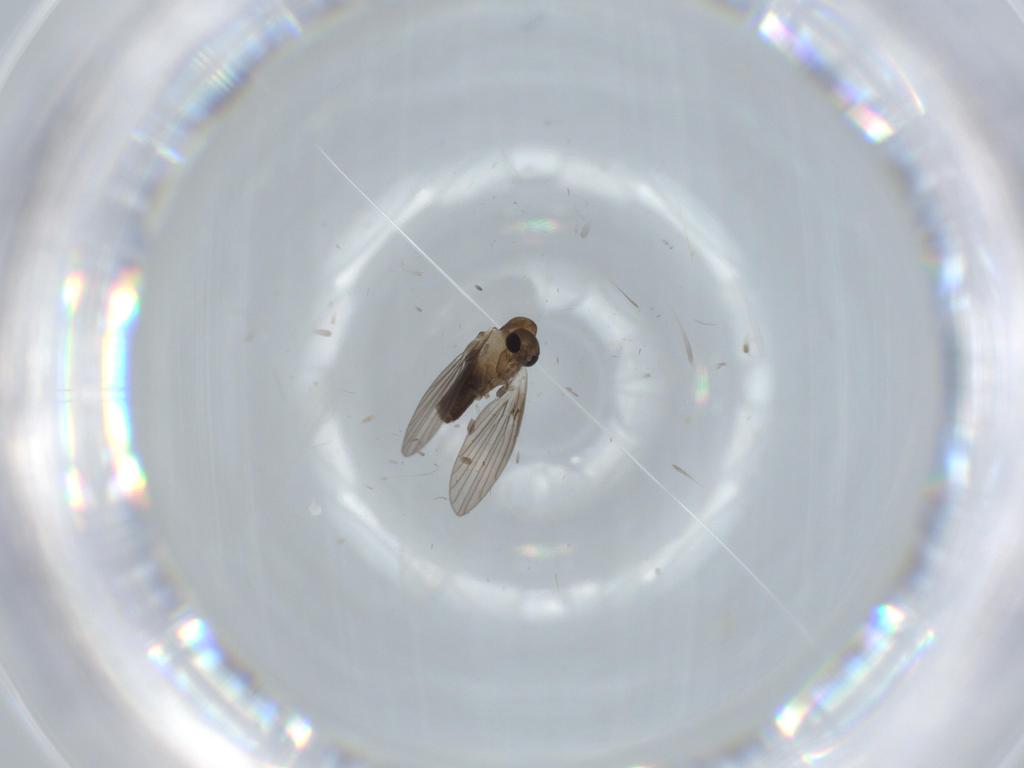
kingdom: Animalia
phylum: Arthropoda
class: Insecta
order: Diptera
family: Psychodidae
